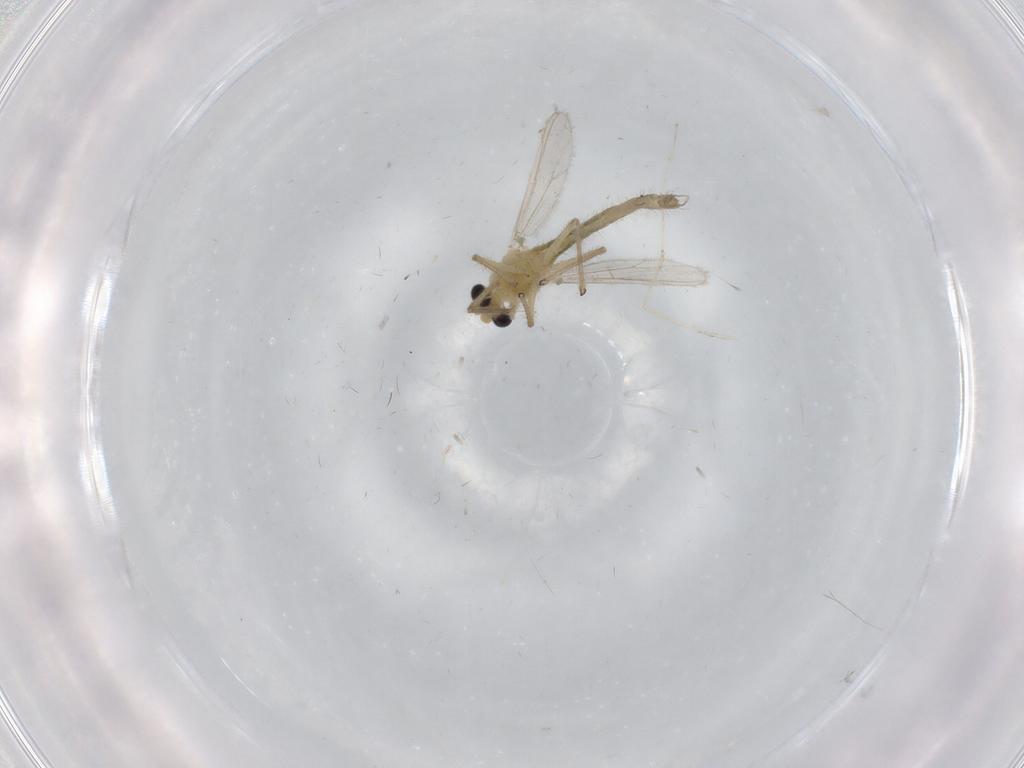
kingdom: Animalia
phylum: Arthropoda
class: Insecta
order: Diptera
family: Chironomidae
